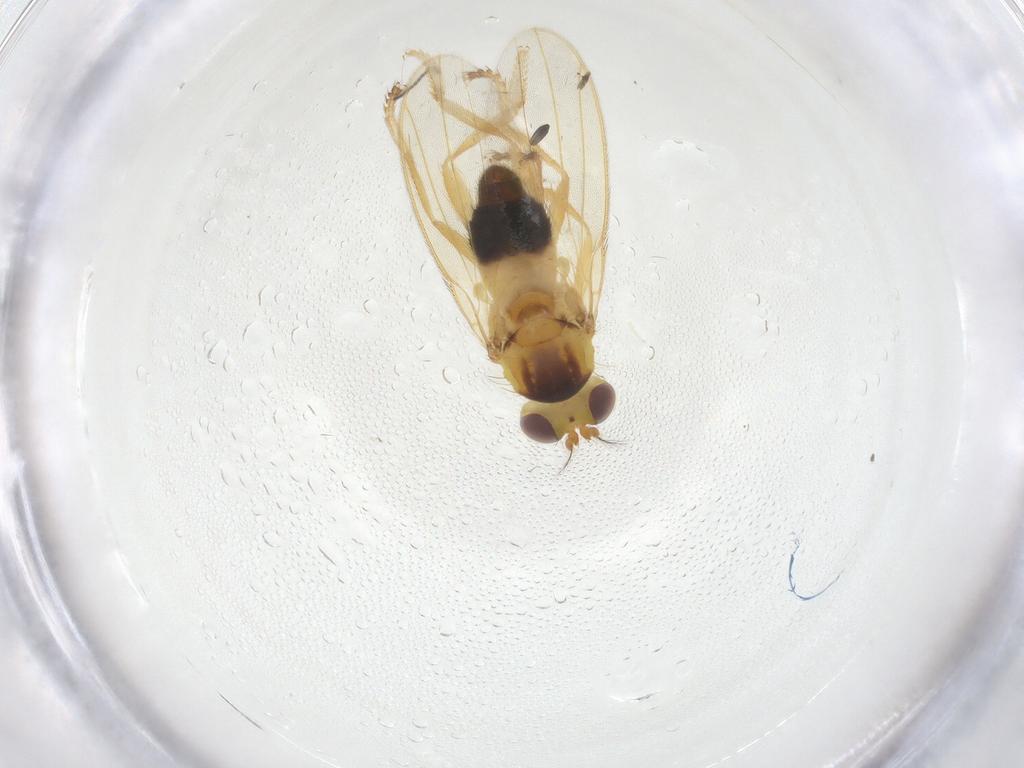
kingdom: Animalia
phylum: Arthropoda
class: Insecta
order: Diptera
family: Periscelididae
